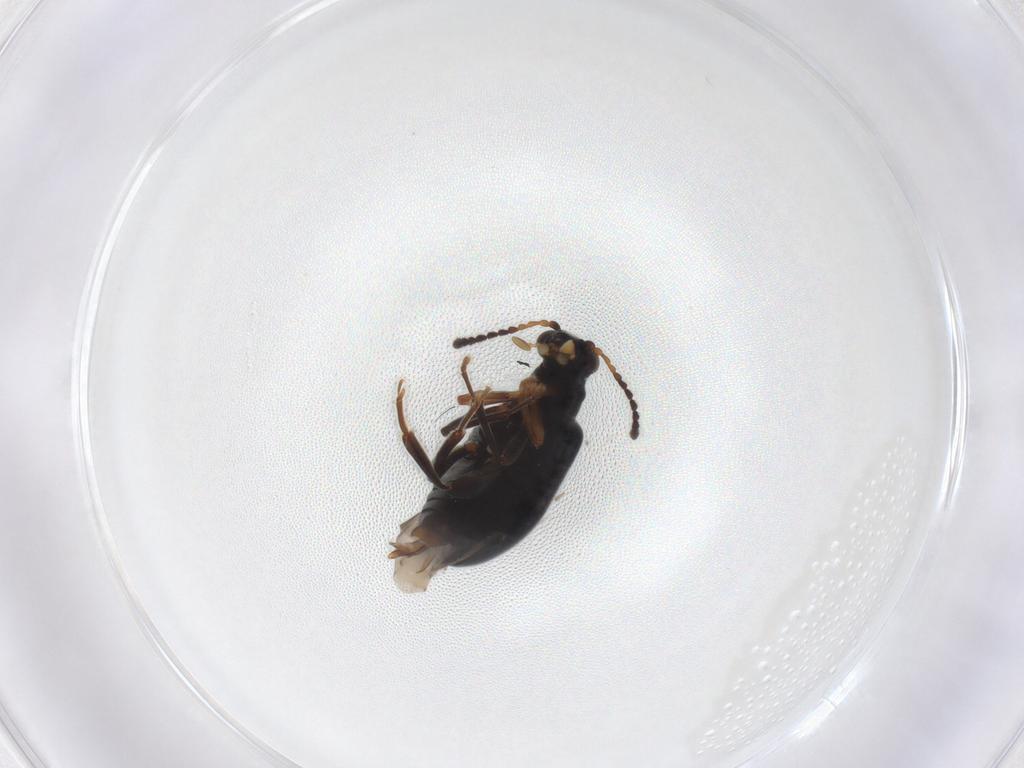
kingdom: Animalia
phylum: Arthropoda
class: Insecta
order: Coleoptera
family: Aderidae
